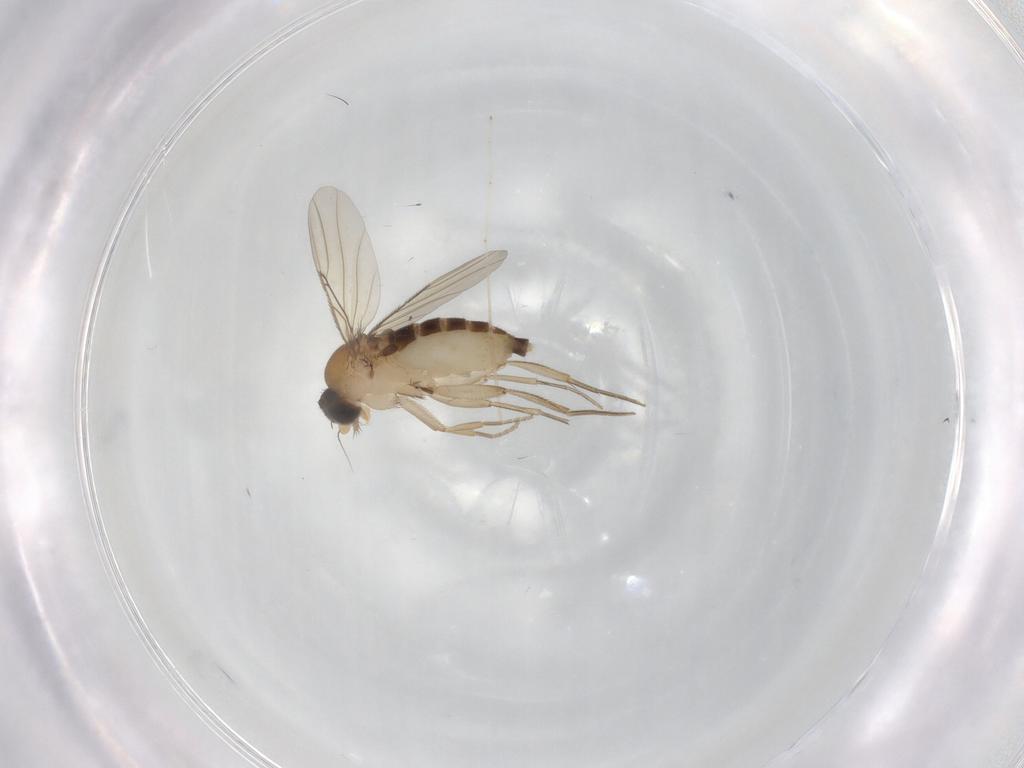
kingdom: Animalia
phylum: Arthropoda
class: Insecta
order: Diptera
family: Phoridae
